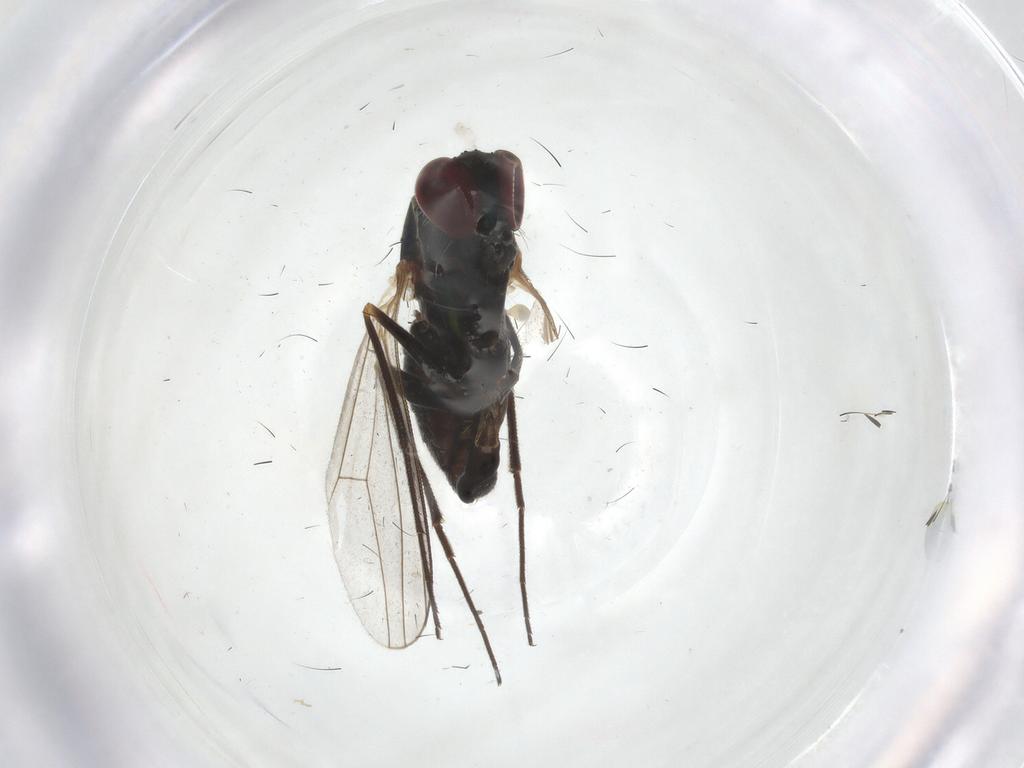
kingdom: Animalia
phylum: Arthropoda
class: Insecta
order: Diptera
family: Dolichopodidae
